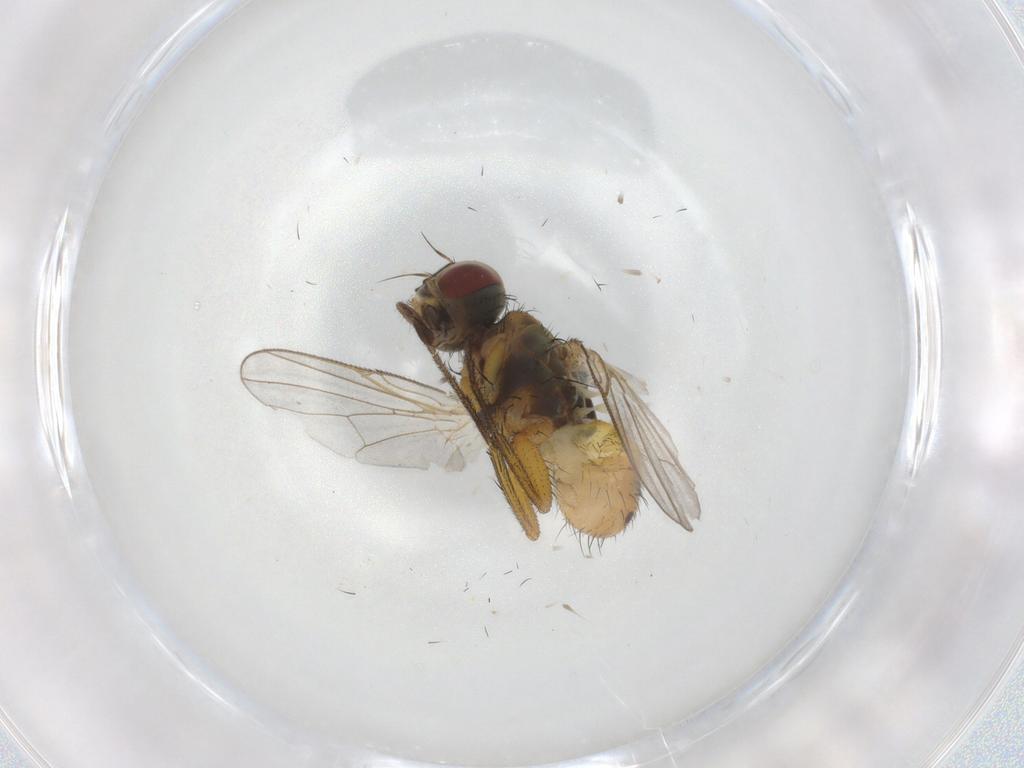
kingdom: Animalia
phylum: Arthropoda
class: Insecta
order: Diptera
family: Muscidae
